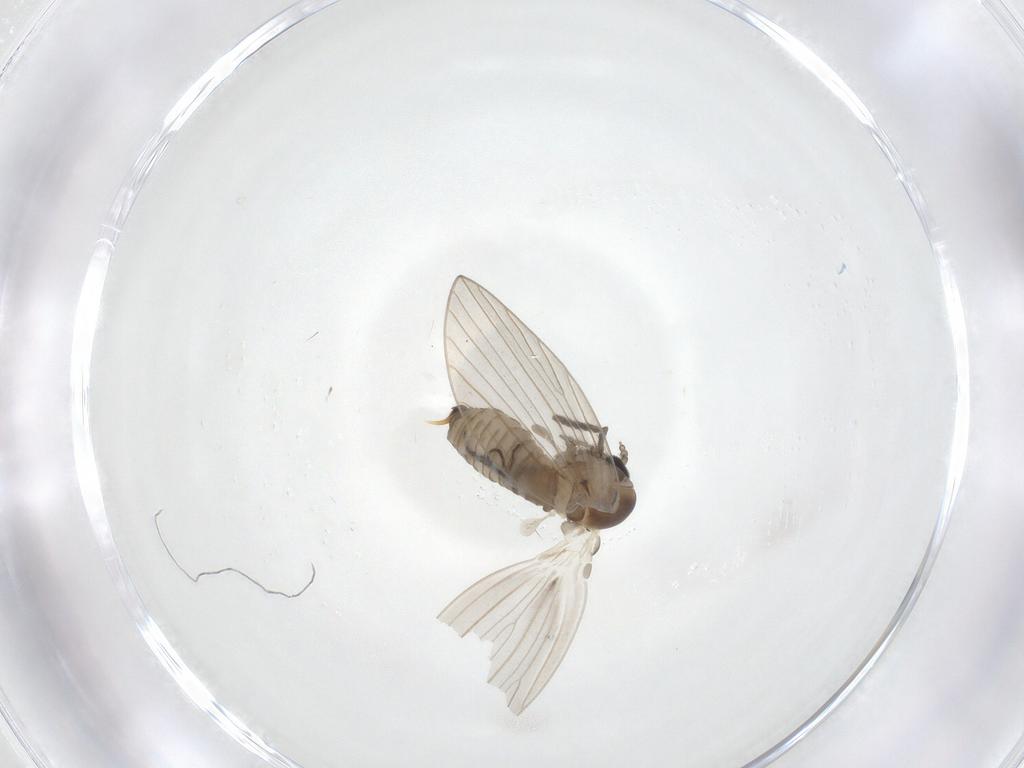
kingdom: Animalia
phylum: Arthropoda
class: Insecta
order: Diptera
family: Psychodidae
